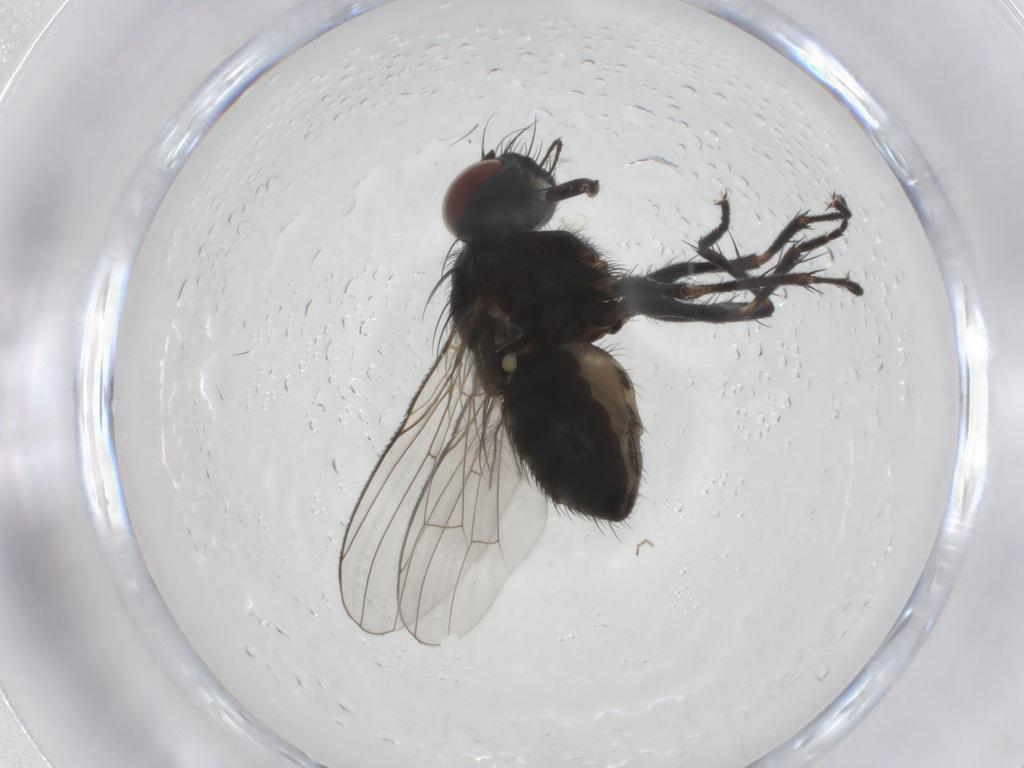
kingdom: Animalia
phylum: Arthropoda
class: Insecta
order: Diptera
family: Muscidae
